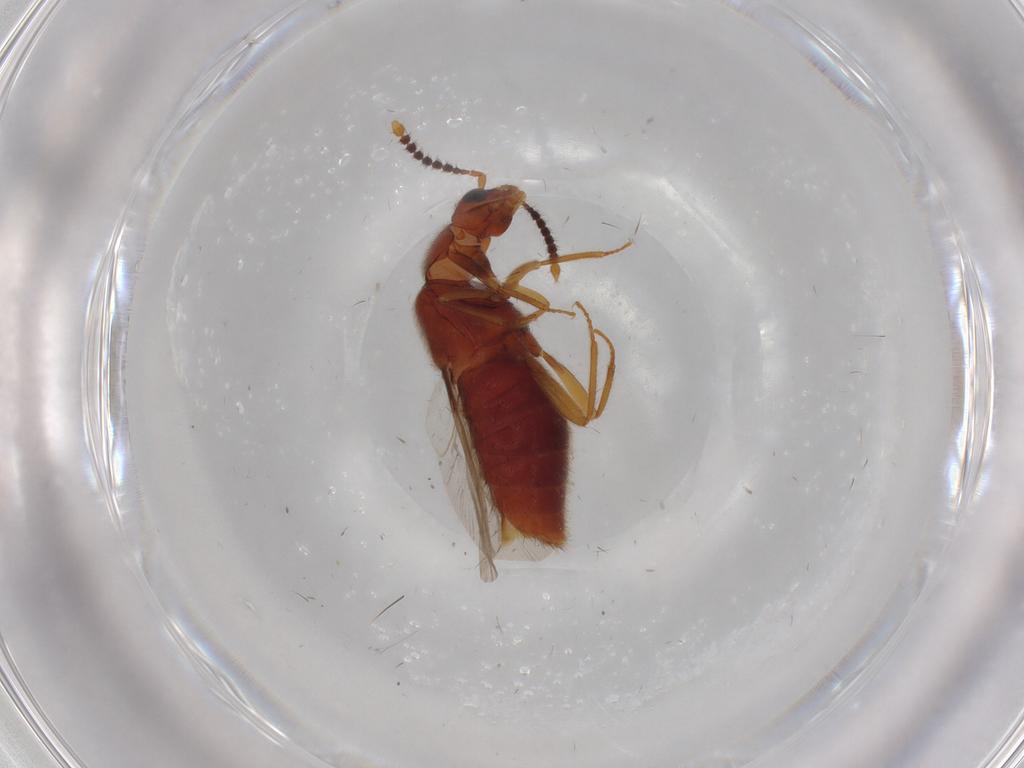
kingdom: Animalia
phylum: Arthropoda
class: Insecta
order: Coleoptera
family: Staphylinidae
